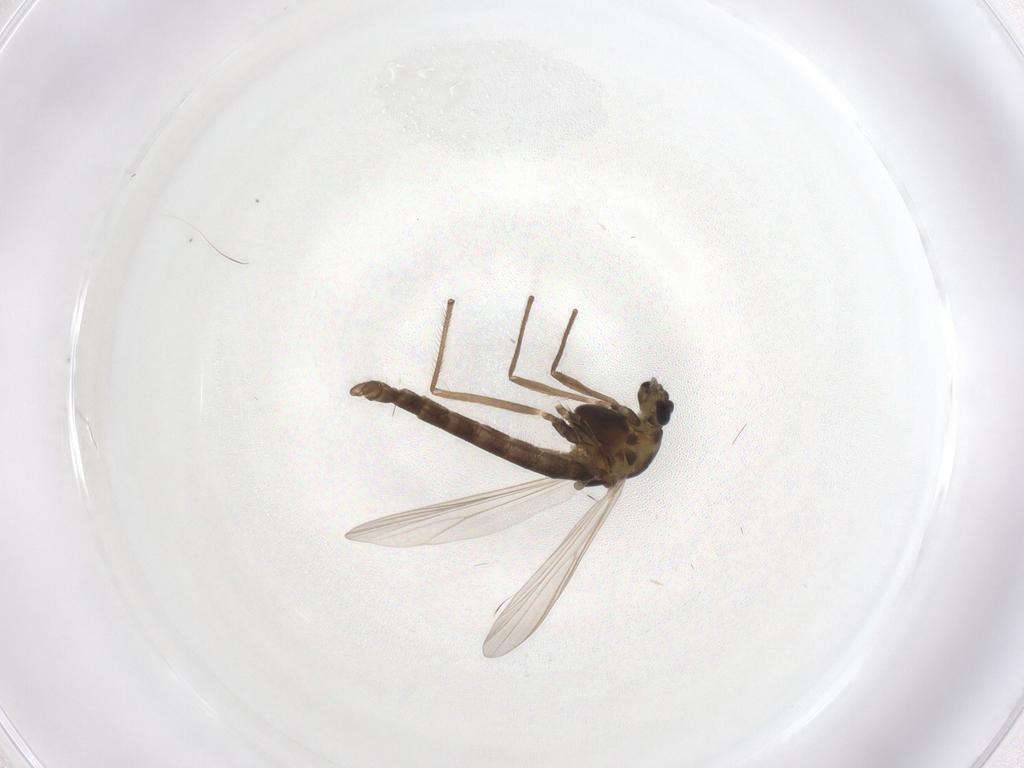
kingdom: Animalia
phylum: Arthropoda
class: Insecta
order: Diptera
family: Chironomidae
